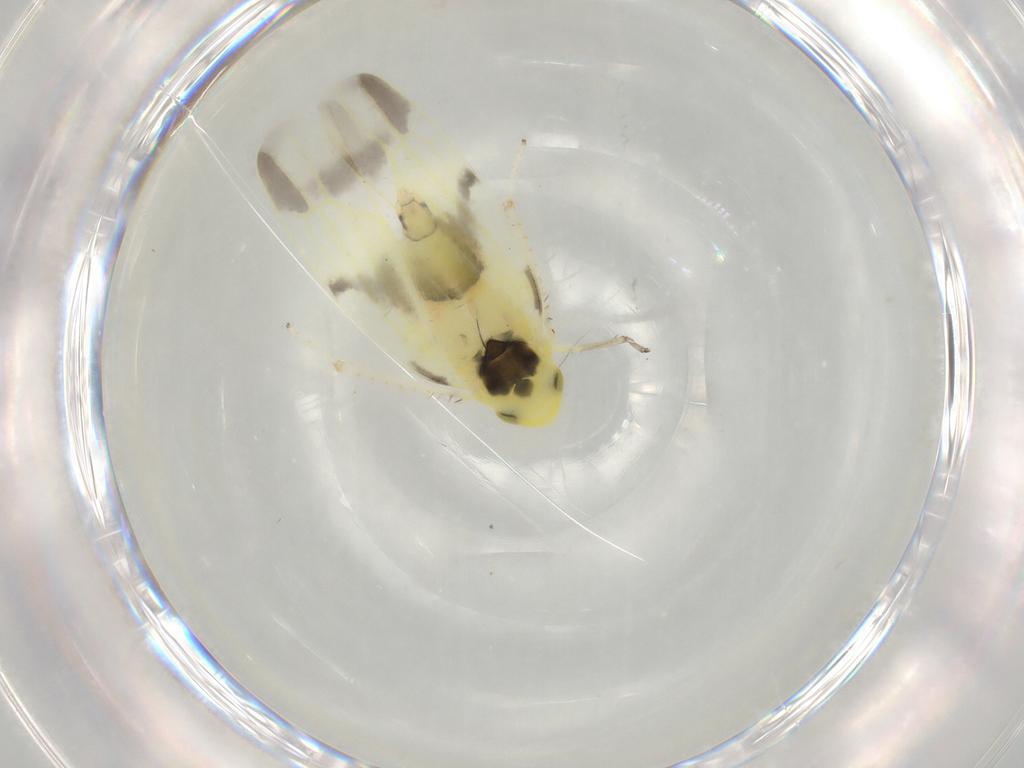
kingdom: Animalia
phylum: Arthropoda
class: Insecta
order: Hemiptera
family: Cicadellidae
